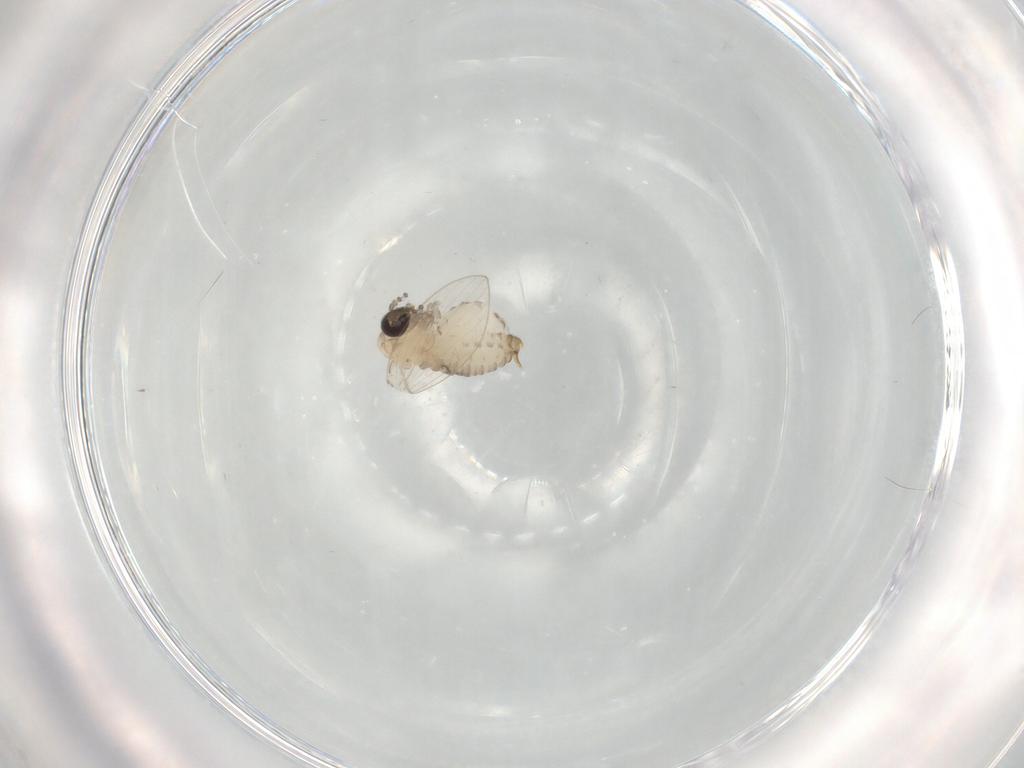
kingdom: Animalia
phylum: Arthropoda
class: Insecta
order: Diptera
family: Psychodidae
